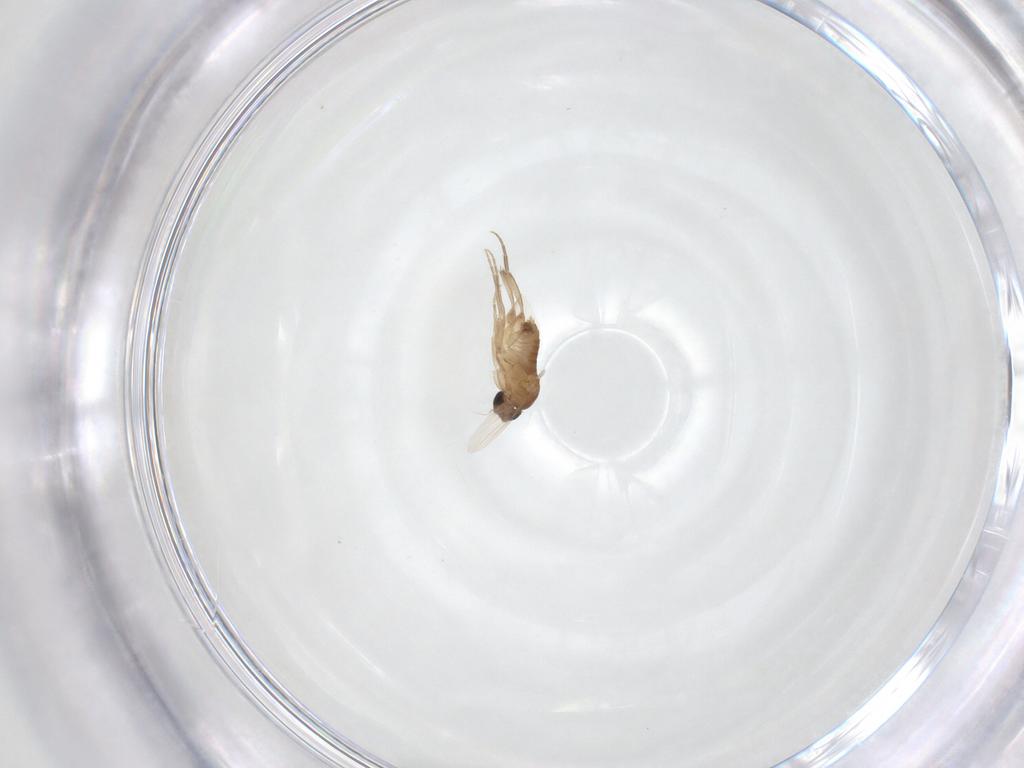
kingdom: Animalia
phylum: Arthropoda
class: Insecta
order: Diptera
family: Phoridae
